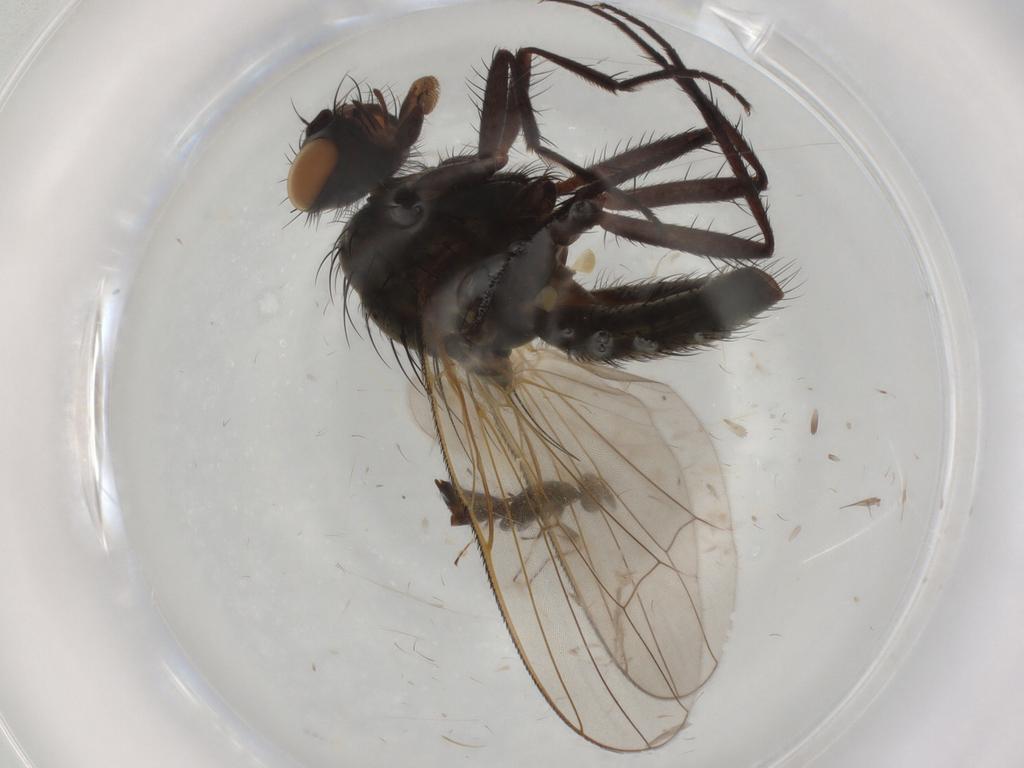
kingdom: Animalia
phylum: Arthropoda
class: Insecta
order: Diptera
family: Anthomyiidae
